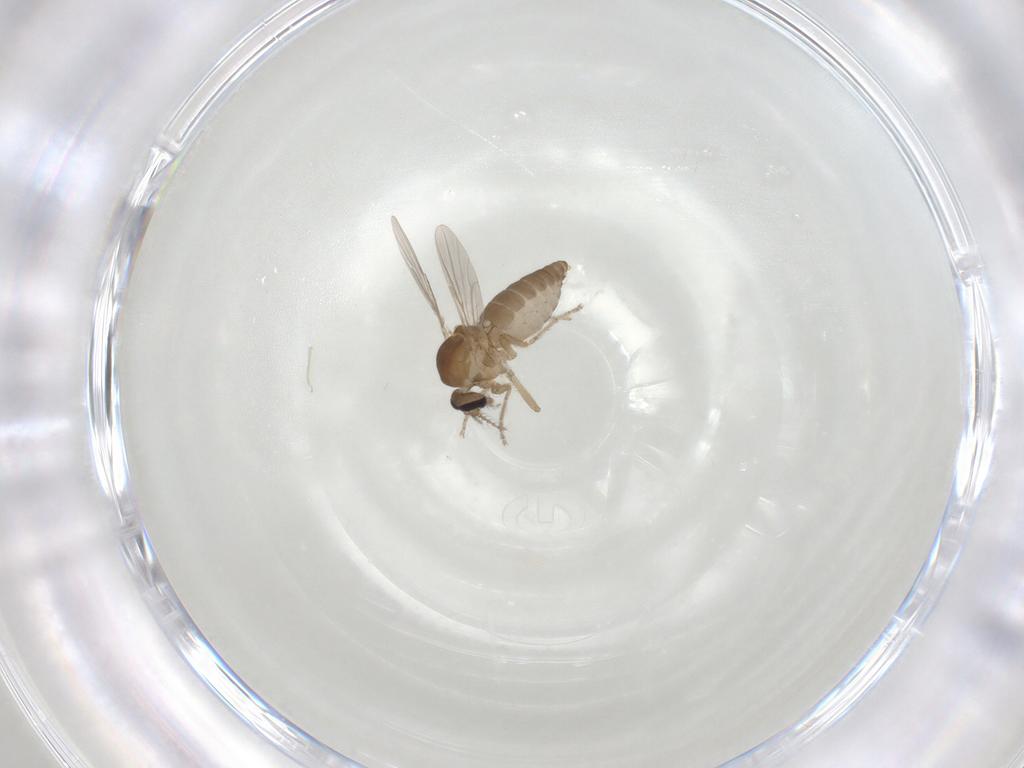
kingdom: Animalia
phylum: Arthropoda
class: Insecta
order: Diptera
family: Ceratopogonidae
